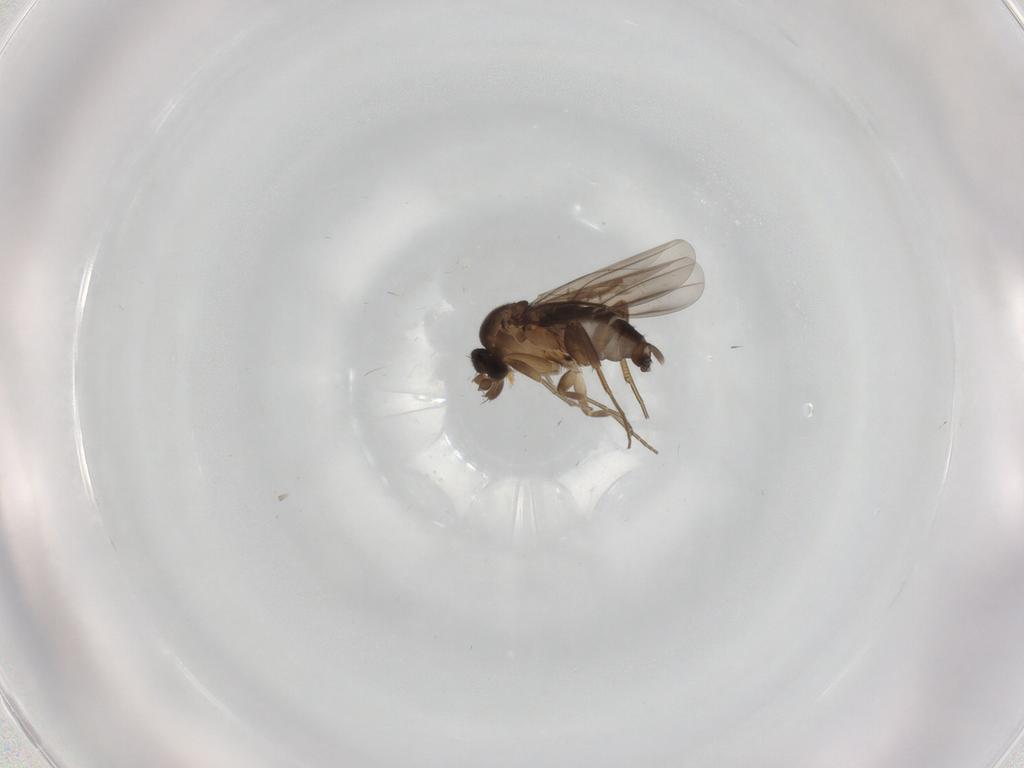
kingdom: Animalia
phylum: Arthropoda
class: Insecta
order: Diptera
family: Phoridae
